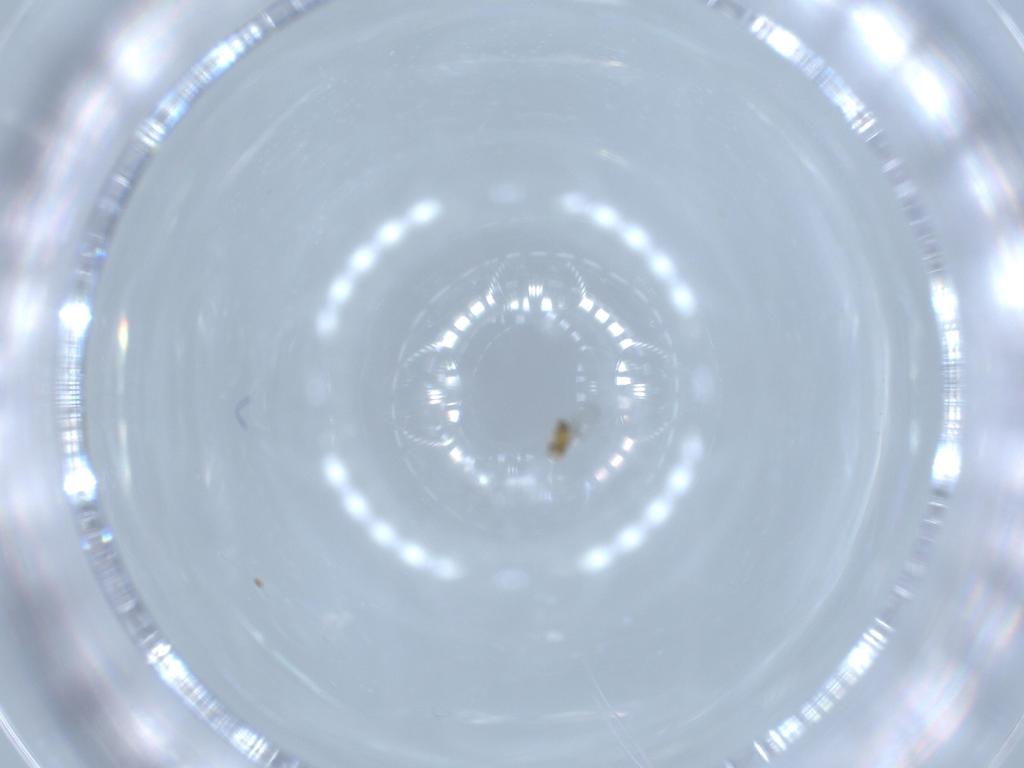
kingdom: Animalia
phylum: Arthropoda
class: Insecta
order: Hymenoptera
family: Trichogrammatidae
